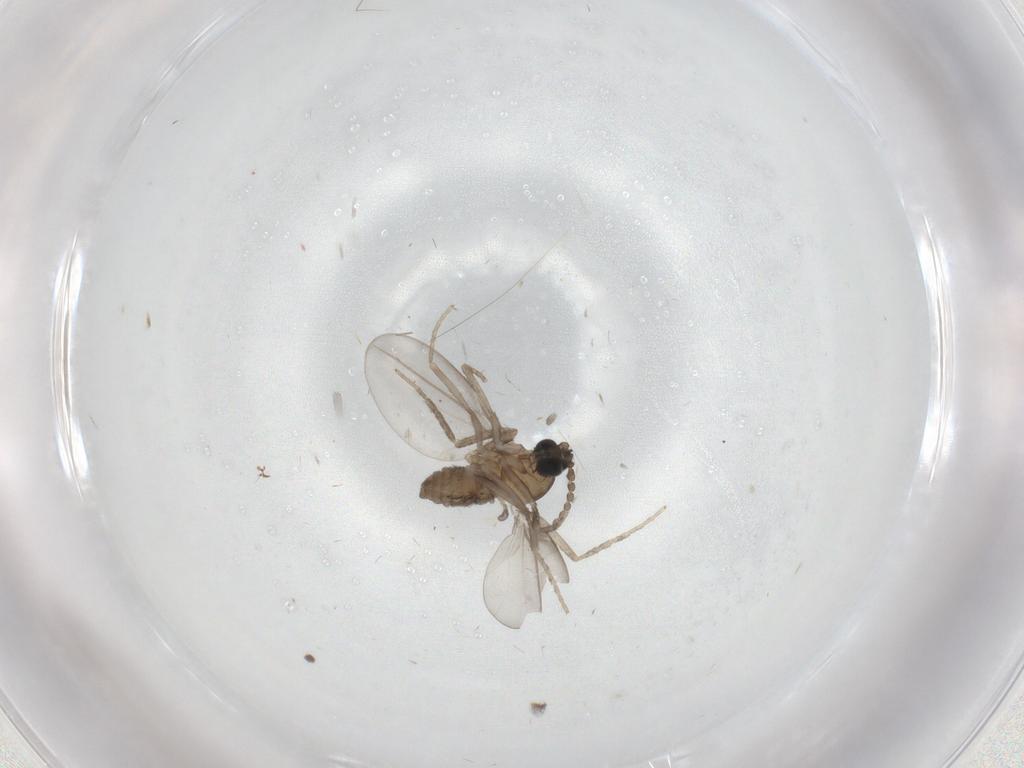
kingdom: Animalia
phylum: Arthropoda
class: Insecta
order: Diptera
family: Cecidomyiidae
